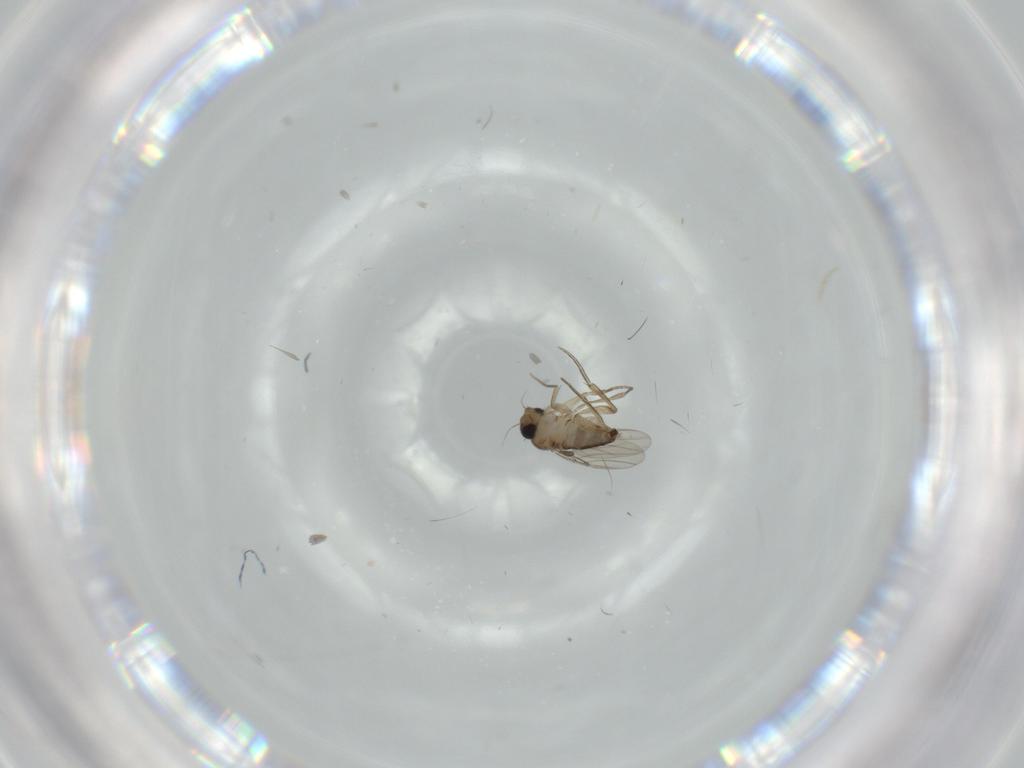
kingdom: Animalia
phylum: Arthropoda
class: Insecta
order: Diptera
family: Phoridae
